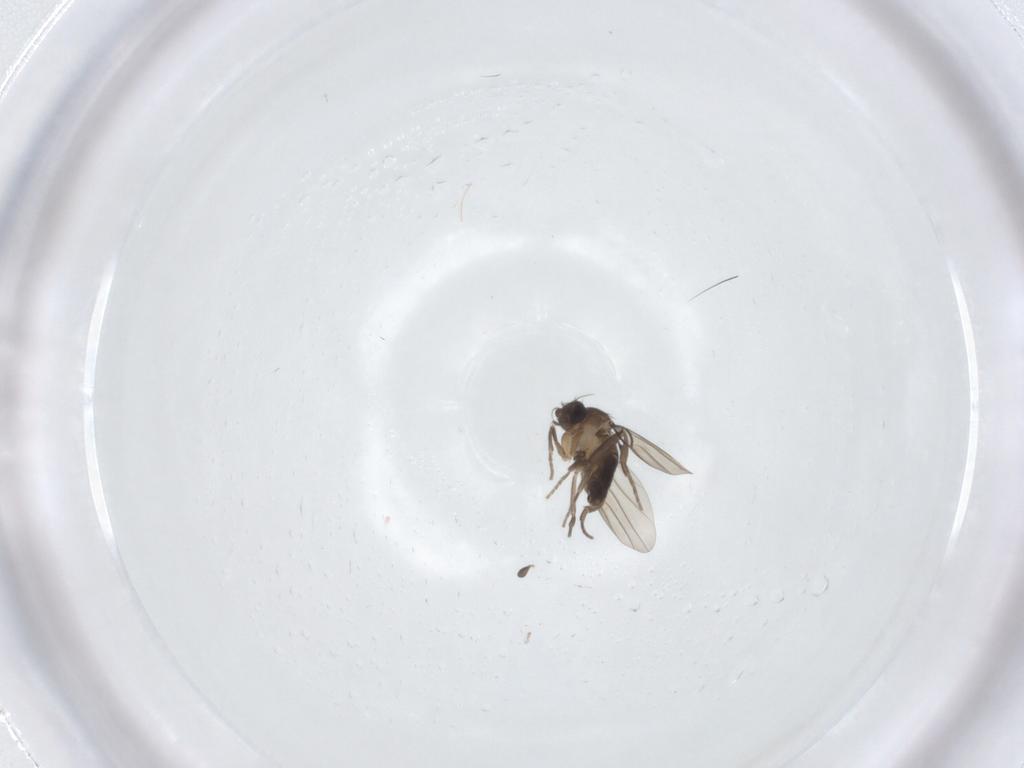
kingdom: Animalia
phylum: Arthropoda
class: Insecta
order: Diptera
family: Phoridae
